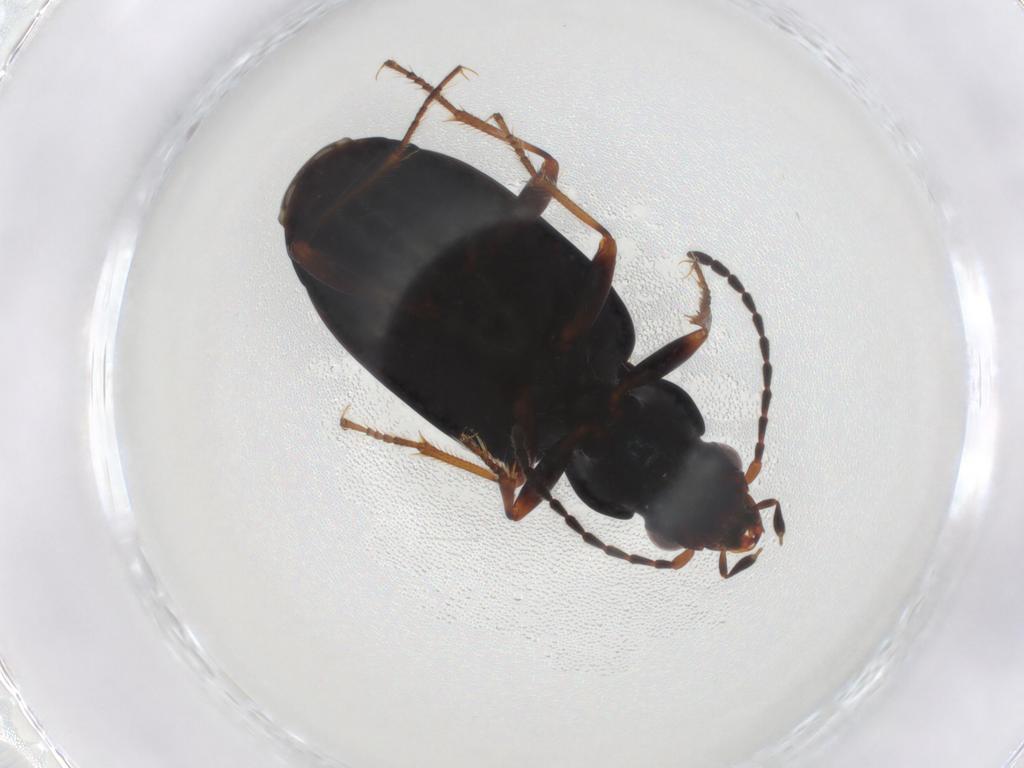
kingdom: Animalia
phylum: Arthropoda
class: Insecta
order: Coleoptera
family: Carabidae
